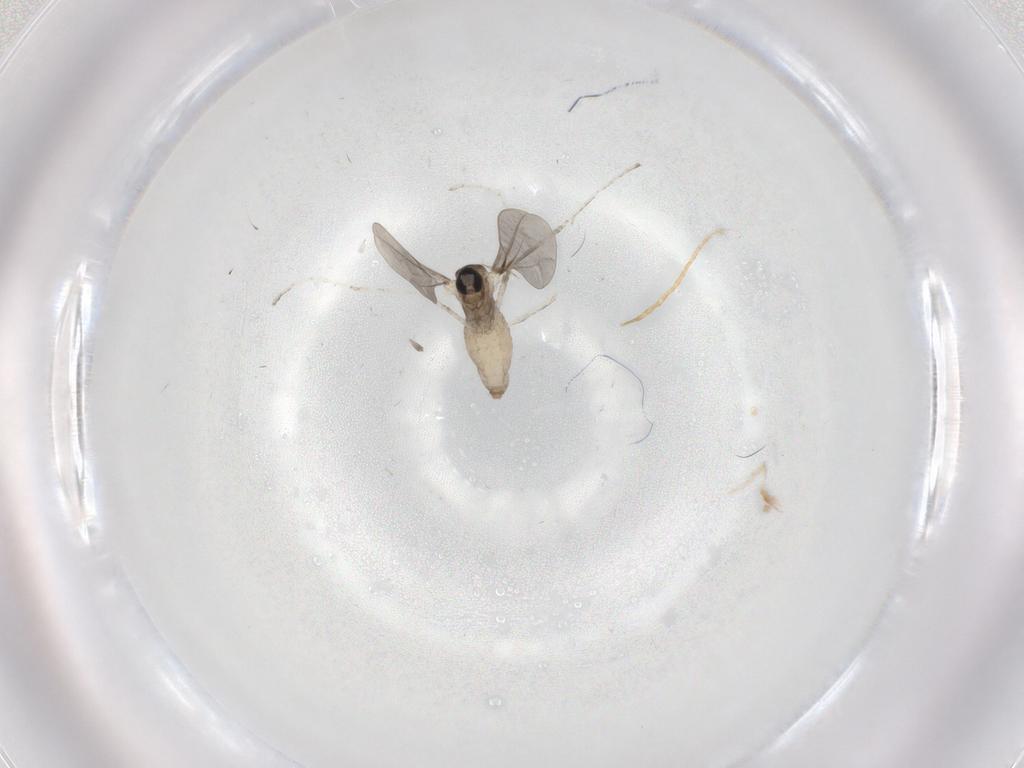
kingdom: Animalia
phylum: Arthropoda
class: Insecta
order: Diptera
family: Cecidomyiidae
